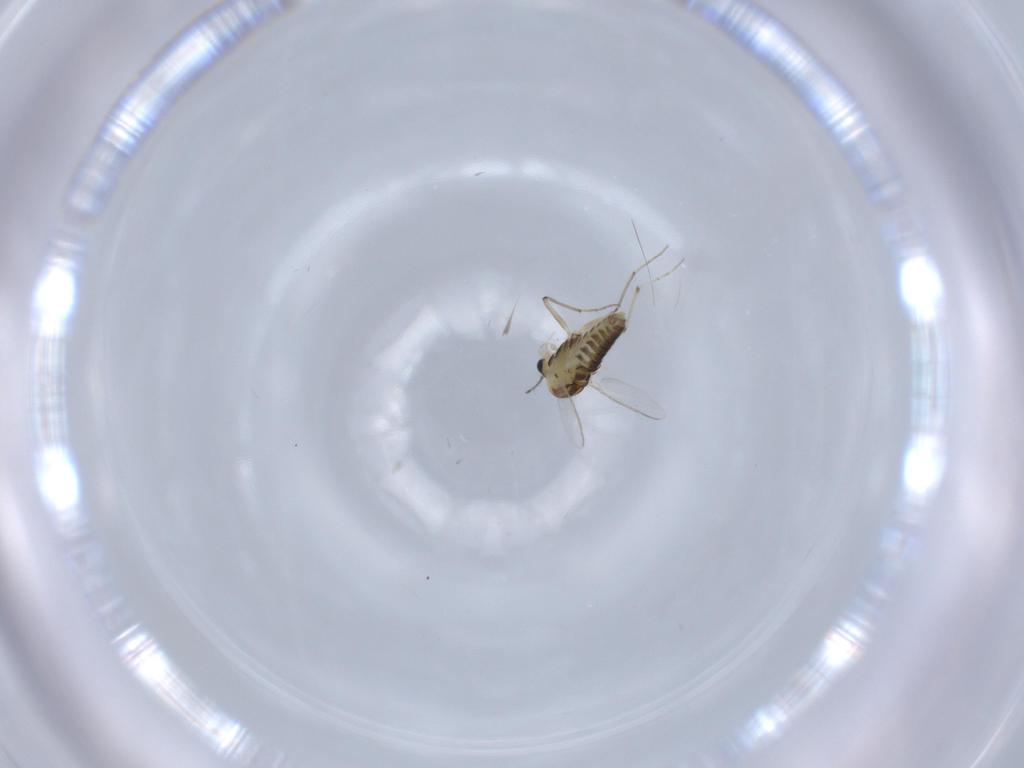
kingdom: Animalia
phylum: Arthropoda
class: Insecta
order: Diptera
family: Chironomidae
